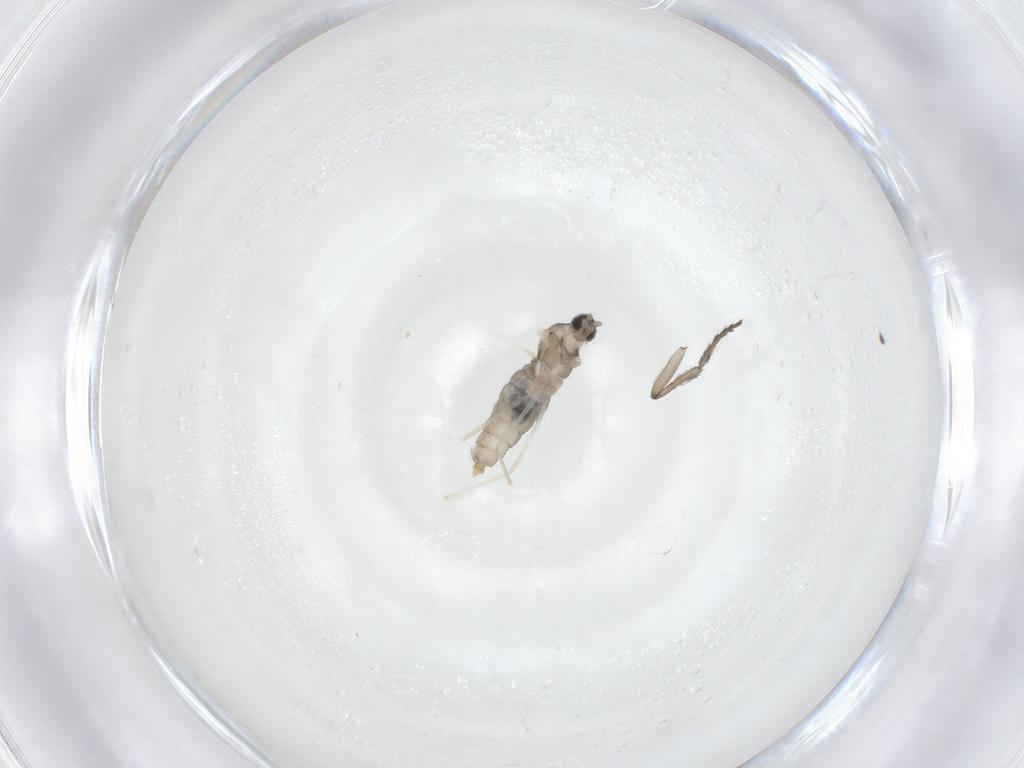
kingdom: Animalia
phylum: Arthropoda
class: Insecta
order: Diptera
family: Cecidomyiidae
